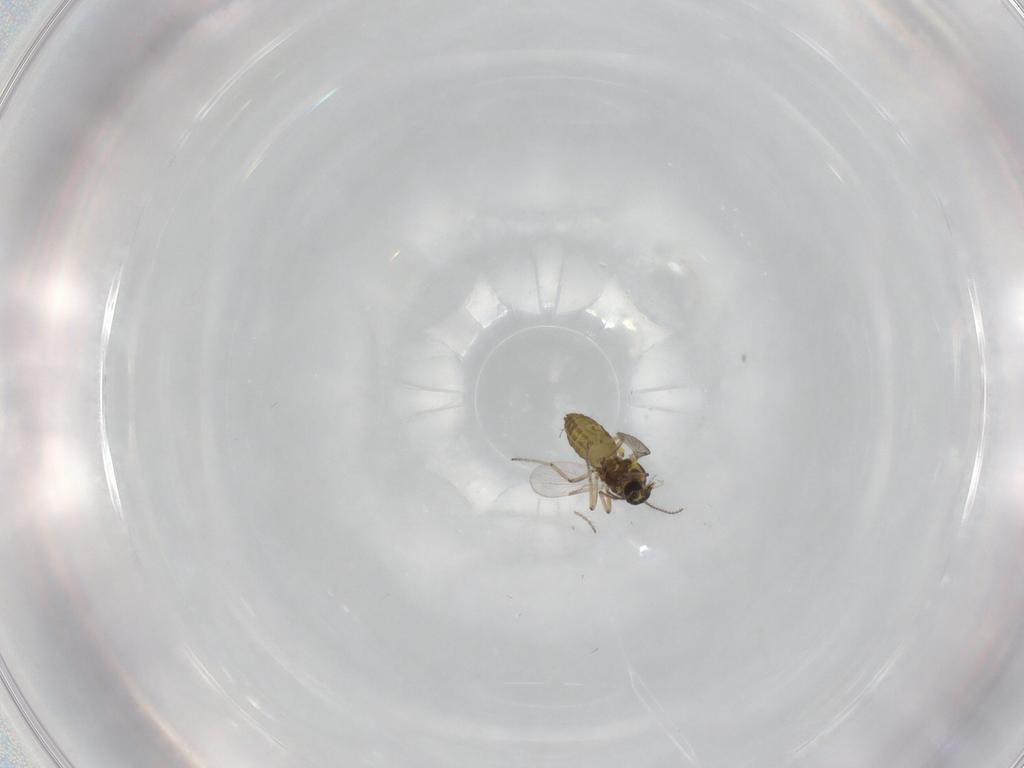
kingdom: Animalia
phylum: Arthropoda
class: Insecta
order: Diptera
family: Ceratopogonidae
